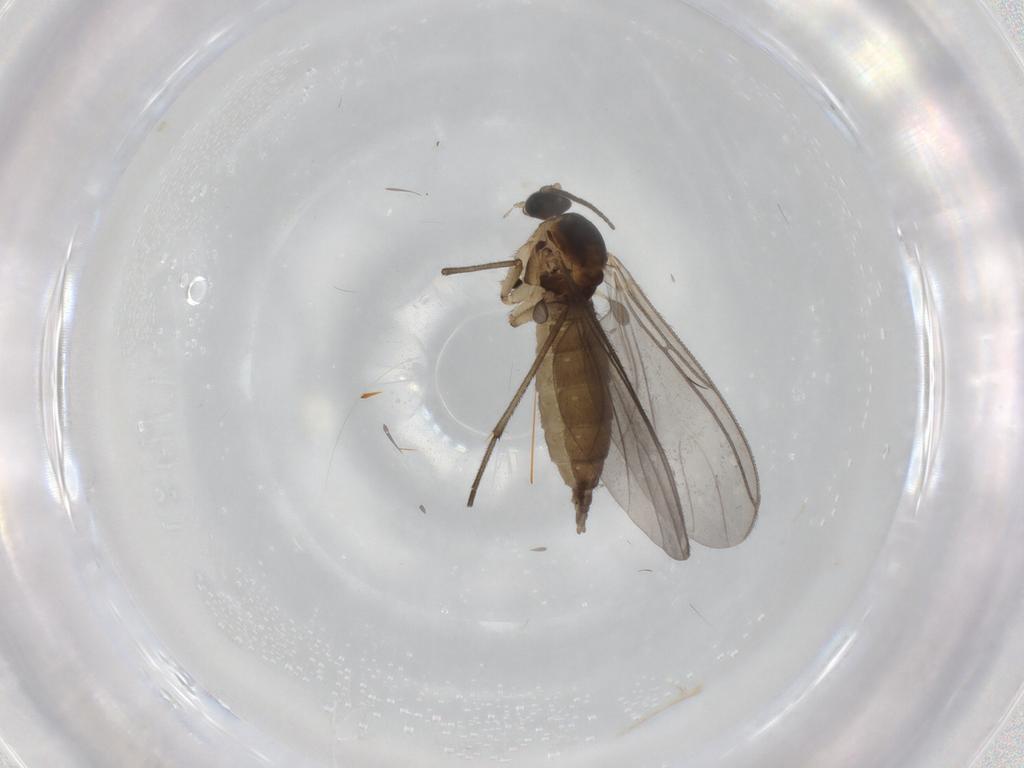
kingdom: Animalia
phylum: Arthropoda
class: Insecta
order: Diptera
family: Sciaridae
